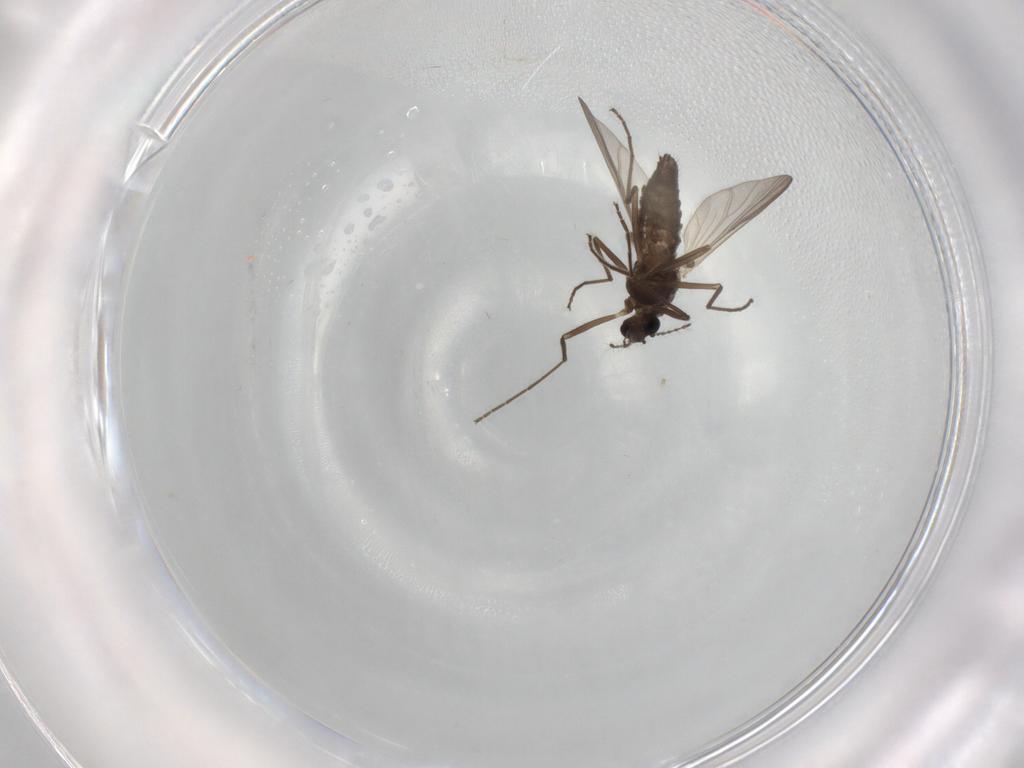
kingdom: Animalia
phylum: Arthropoda
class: Insecta
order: Diptera
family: Chironomidae
